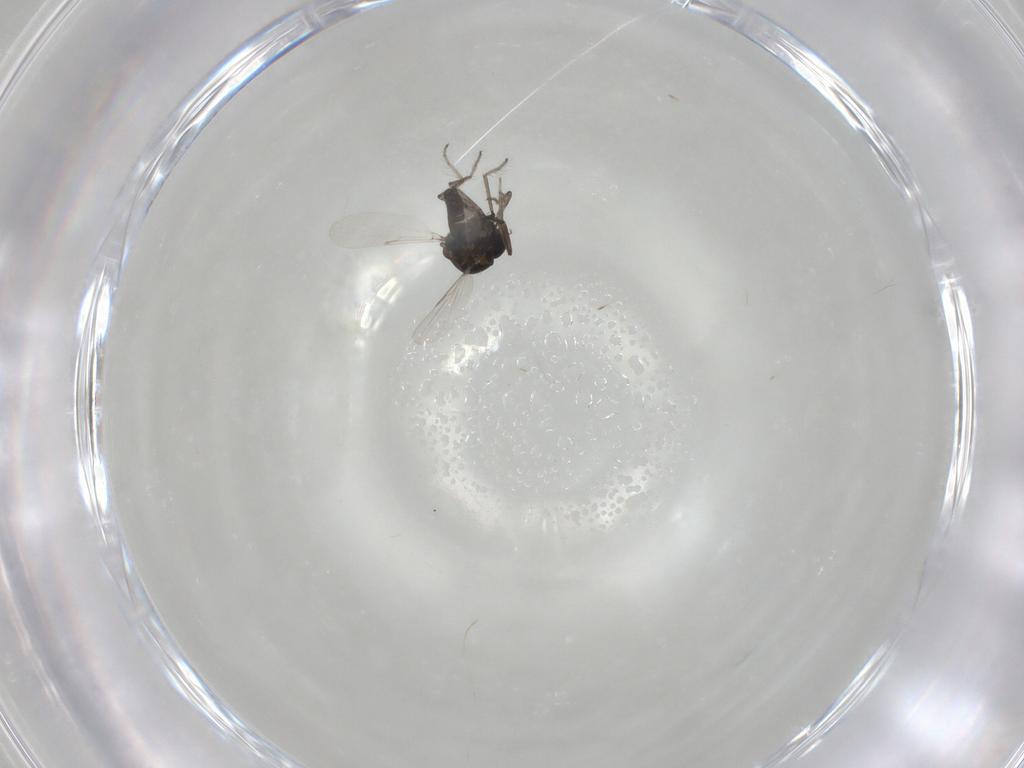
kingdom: Animalia
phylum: Arthropoda
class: Insecta
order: Diptera
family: Ceratopogonidae
